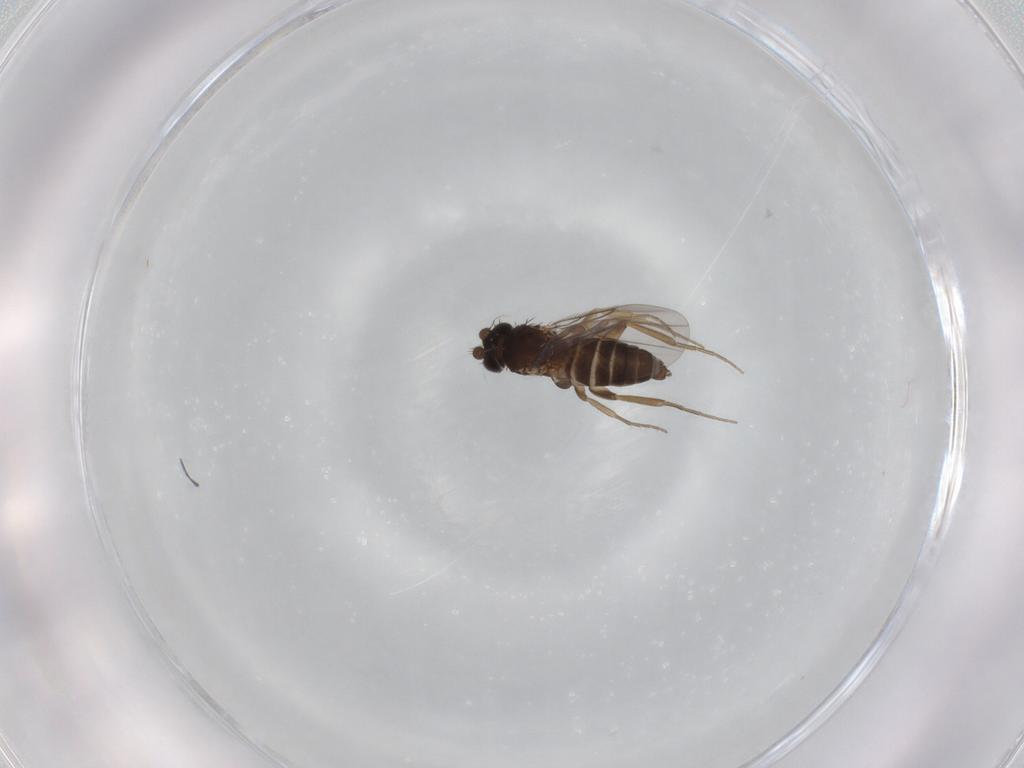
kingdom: Animalia
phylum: Arthropoda
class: Insecta
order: Diptera
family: Phoridae
